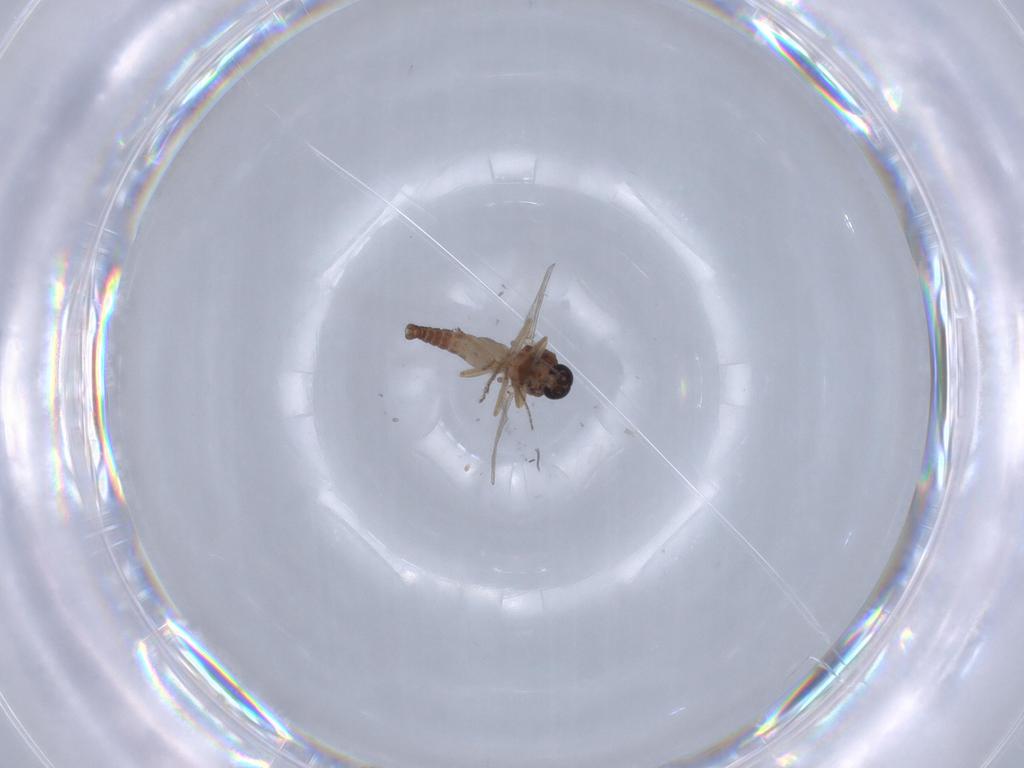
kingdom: Animalia
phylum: Arthropoda
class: Insecta
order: Diptera
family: Ceratopogonidae
